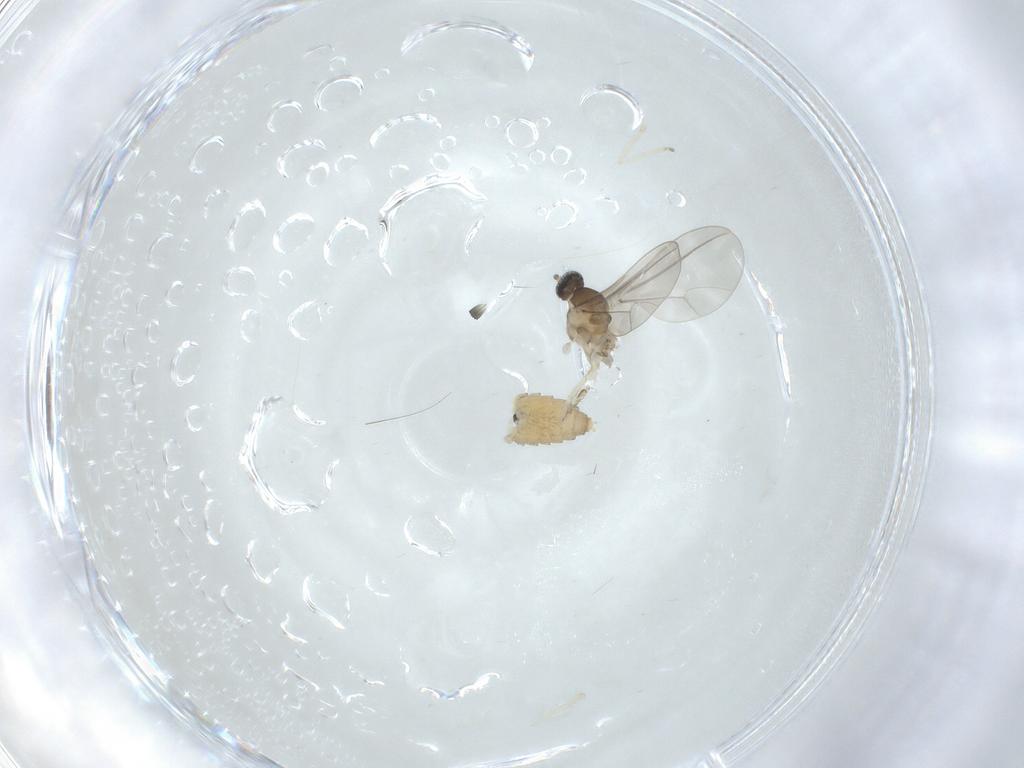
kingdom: Animalia
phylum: Arthropoda
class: Insecta
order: Diptera
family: Cecidomyiidae
